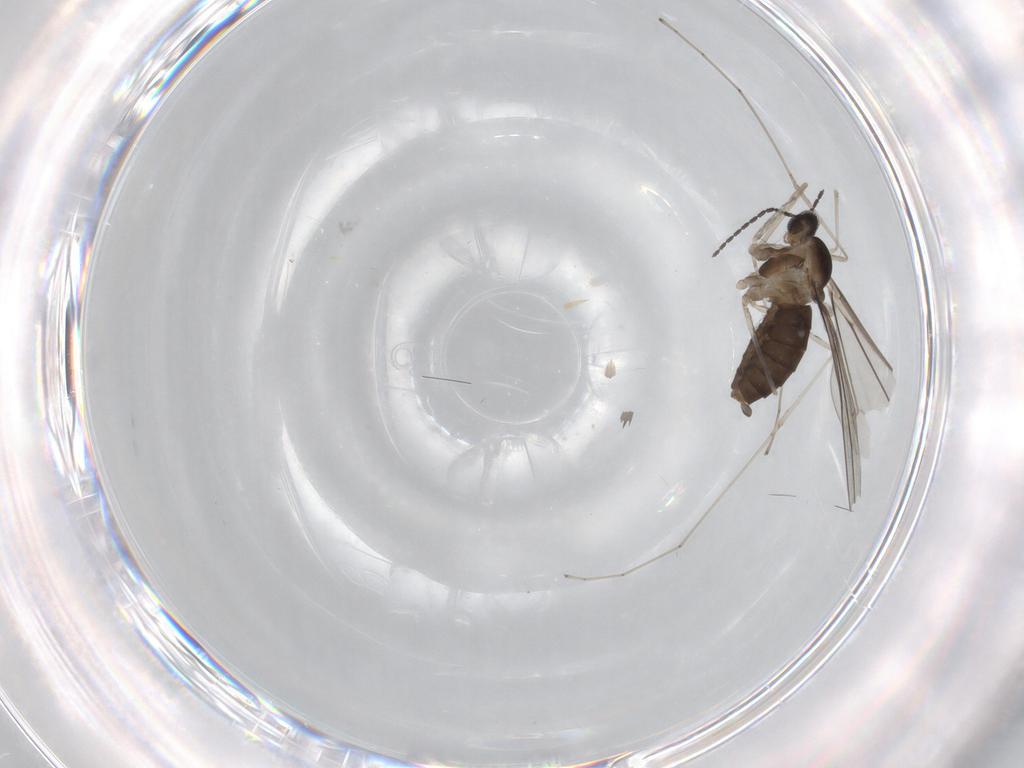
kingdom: Animalia
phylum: Arthropoda
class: Insecta
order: Diptera
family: Cecidomyiidae
